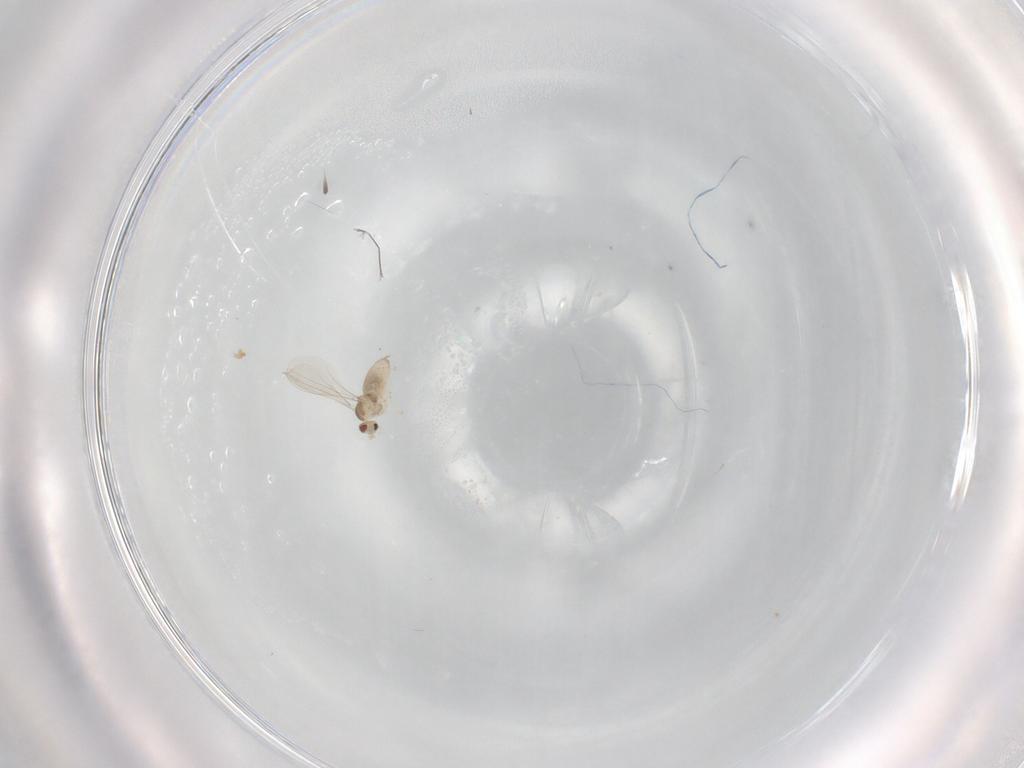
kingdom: Animalia
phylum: Arthropoda
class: Insecta
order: Diptera
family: Cecidomyiidae
